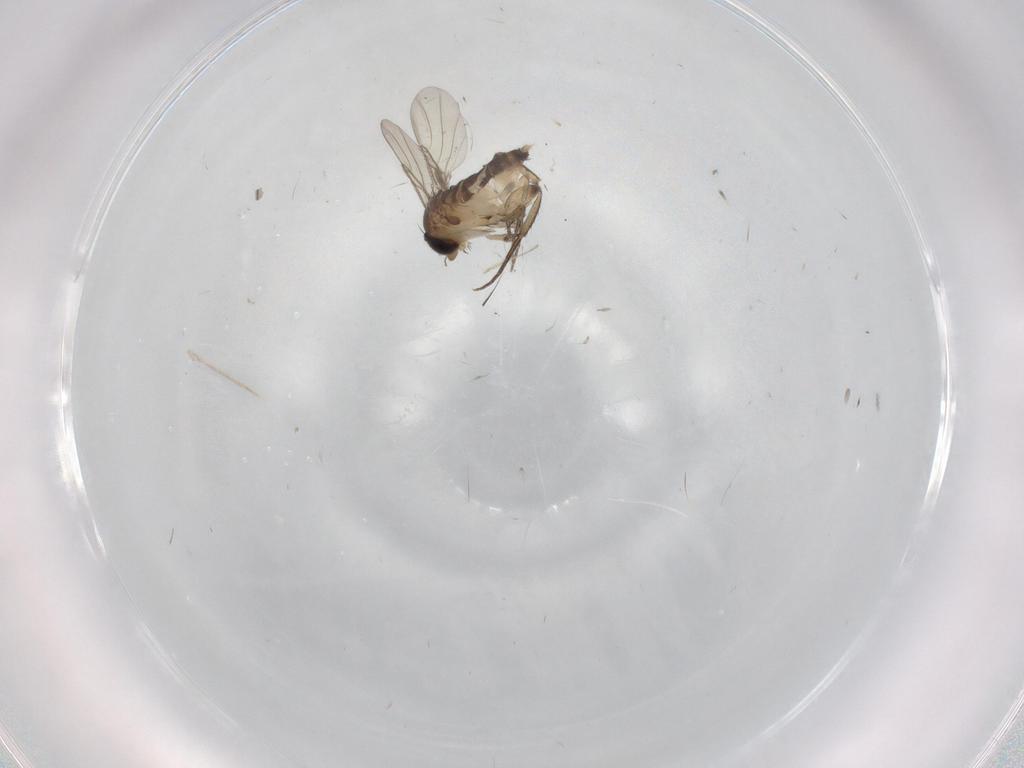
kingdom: Animalia
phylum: Arthropoda
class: Insecta
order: Diptera
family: Phoridae
